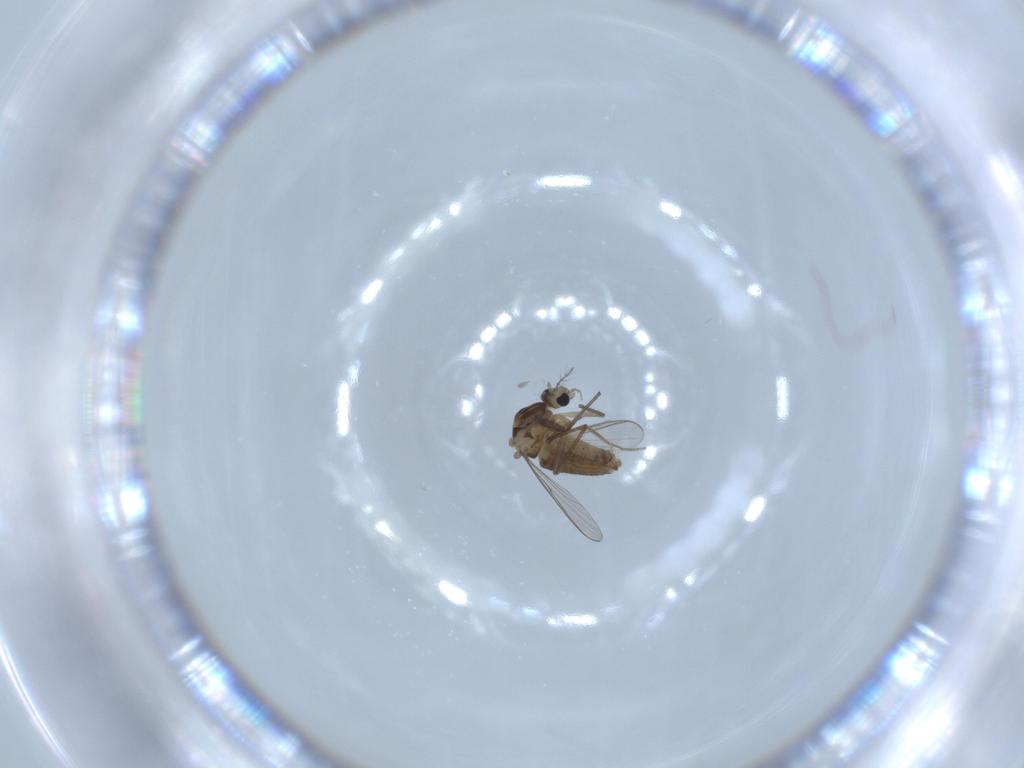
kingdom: Animalia
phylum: Arthropoda
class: Insecta
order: Diptera
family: Chironomidae
